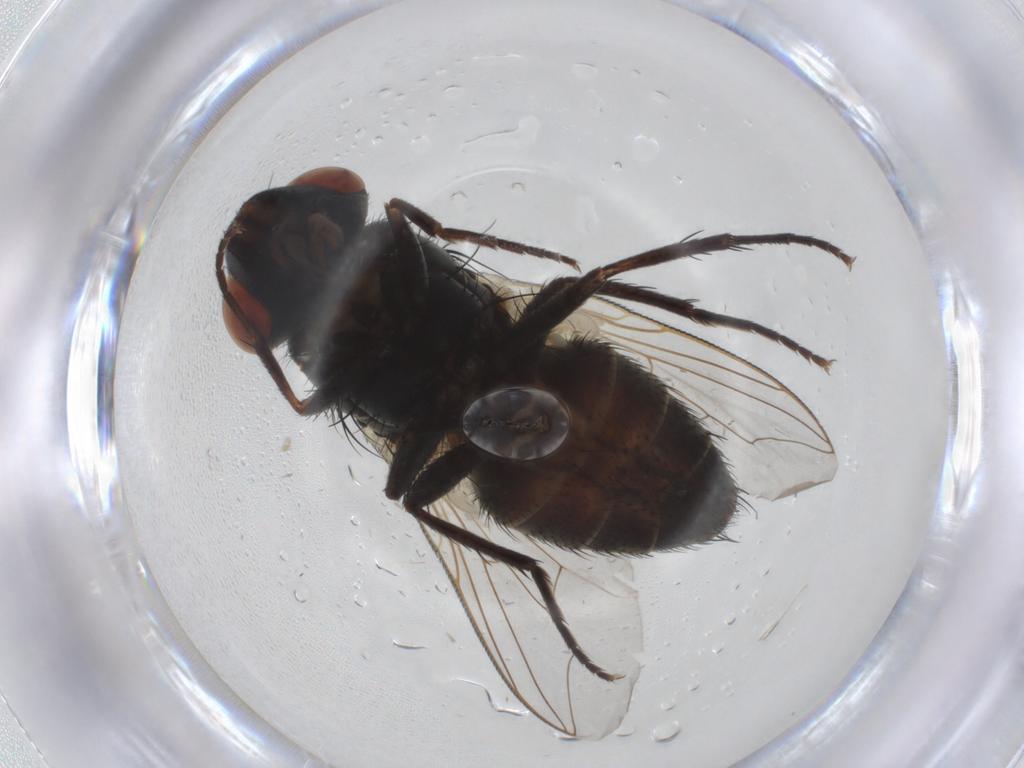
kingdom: Animalia
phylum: Arthropoda
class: Insecta
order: Diptera
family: Sarcophagidae
